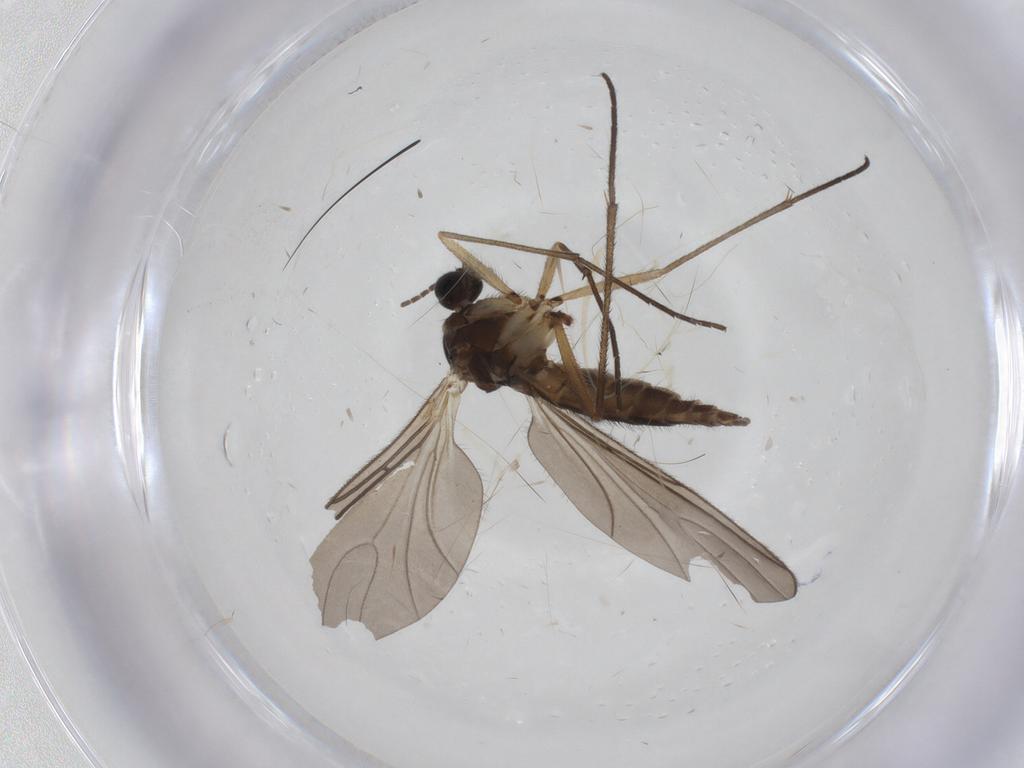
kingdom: Animalia
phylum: Arthropoda
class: Insecta
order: Diptera
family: Sciaridae
